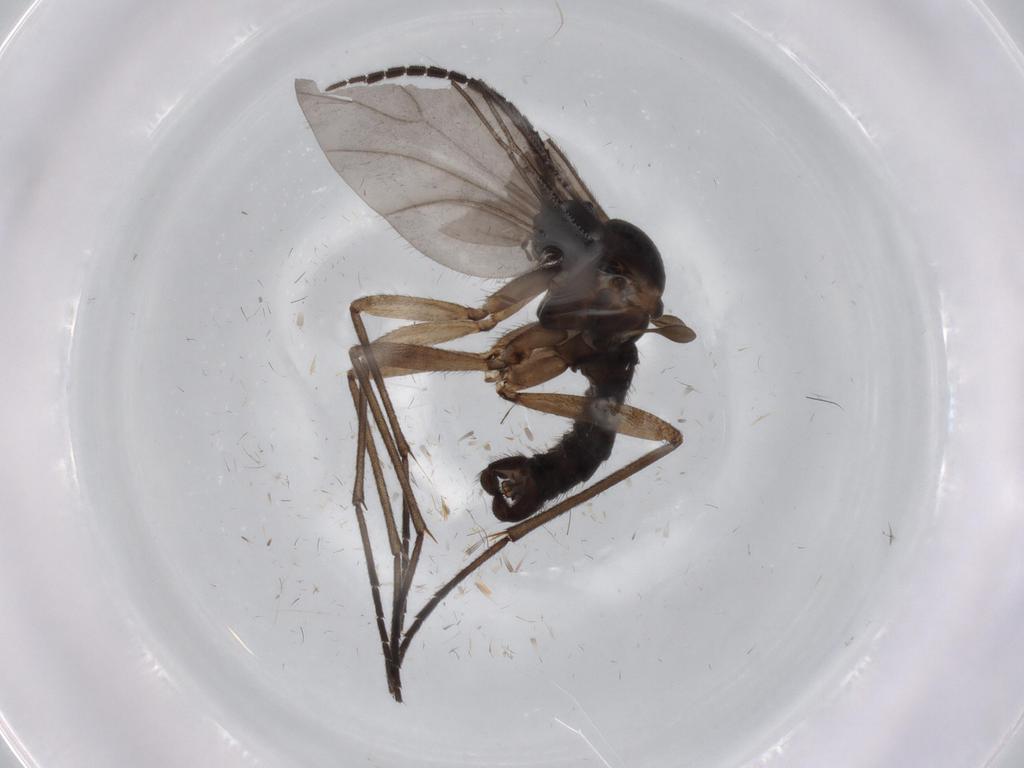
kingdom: Animalia
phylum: Arthropoda
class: Insecta
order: Diptera
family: Sciaridae
